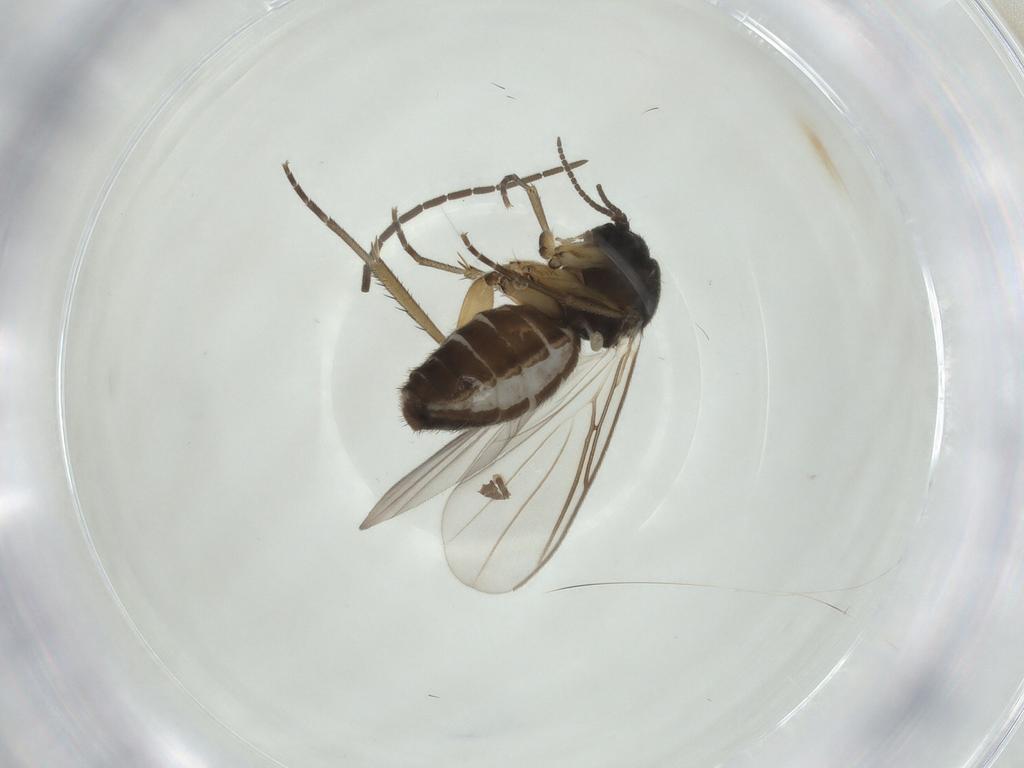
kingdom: Animalia
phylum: Arthropoda
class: Insecta
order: Diptera
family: Mycetophilidae
